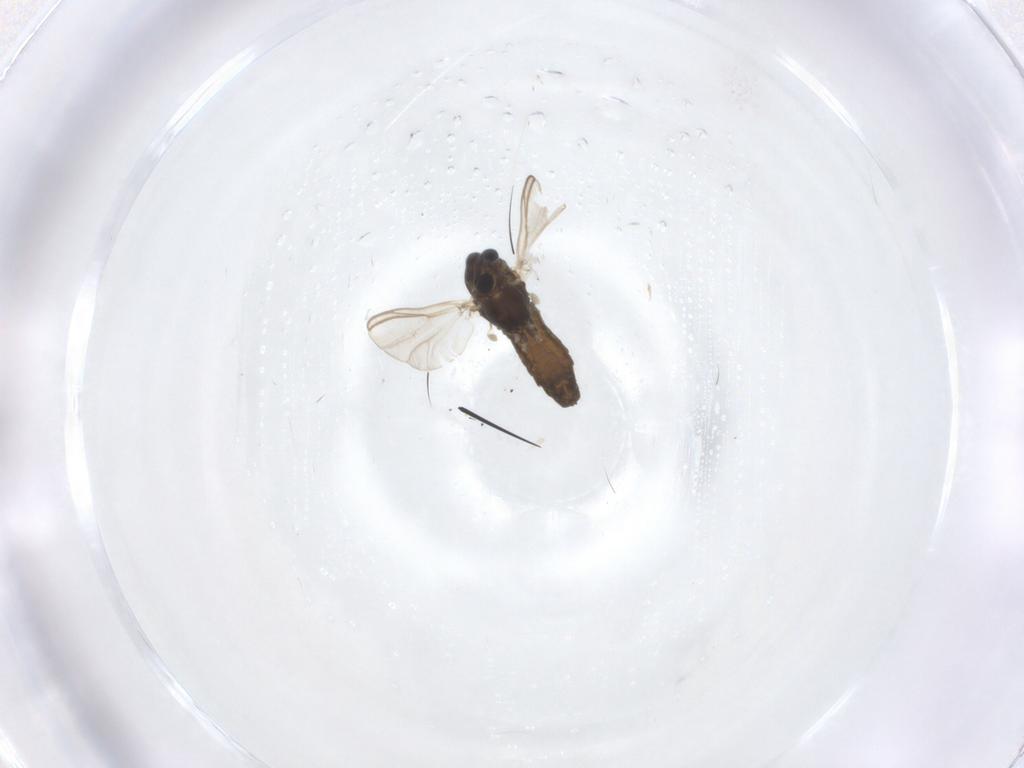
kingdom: Animalia
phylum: Arthropoda
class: Insecta
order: Diptera
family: Chironomidae
